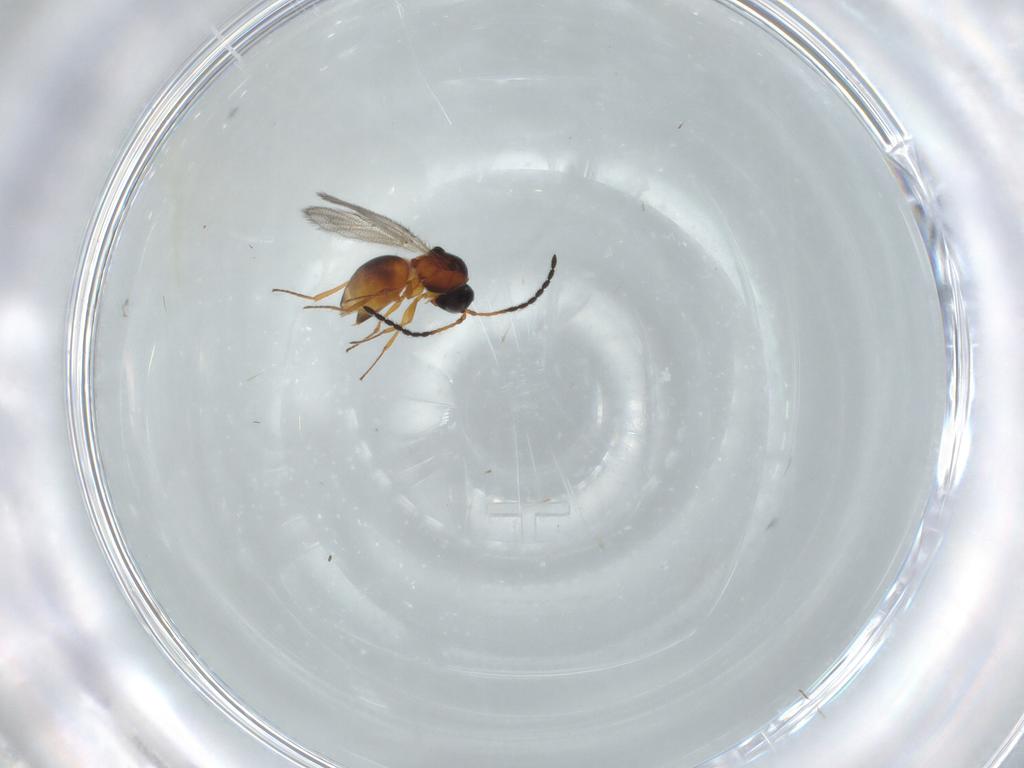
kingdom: Animalia
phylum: Arthropoda
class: Insecta
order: Hymenoptera
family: Figitidae
